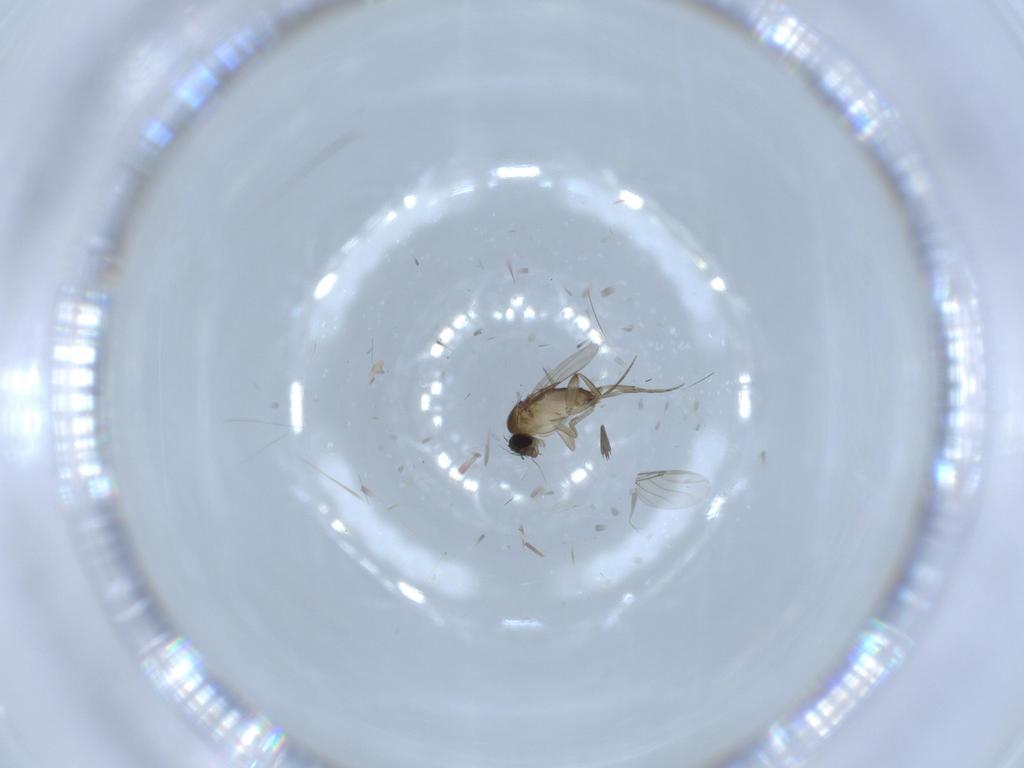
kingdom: Animalia
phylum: Arthropoda
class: Insecta
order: Diptera
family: Phoridae
